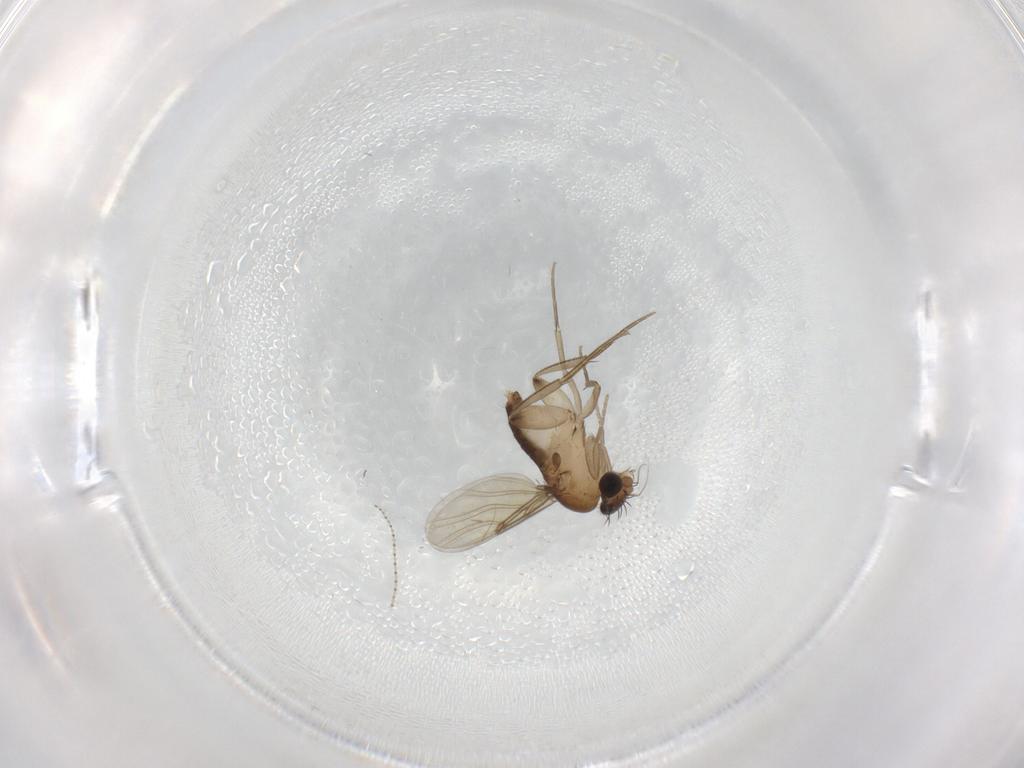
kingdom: Animalia
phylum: Arthropoda
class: Insecta
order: Diptera
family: Phoridae
